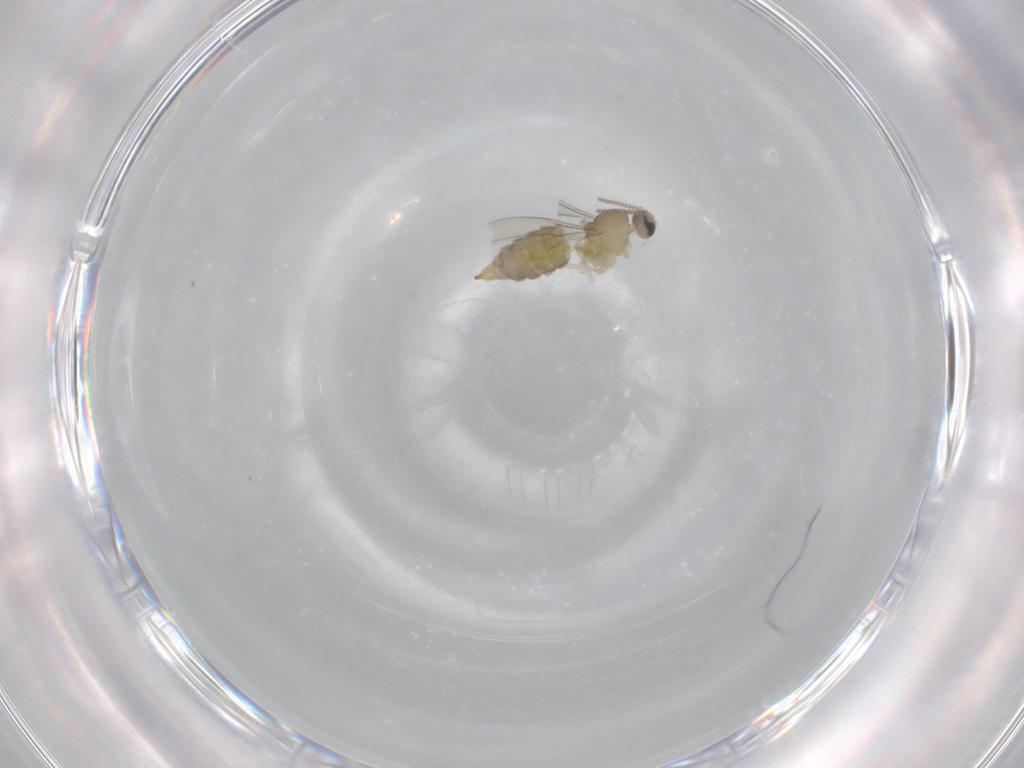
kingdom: Animalia
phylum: Arthropoda
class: Insecta
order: Diptera
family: Cecidomyiidae
